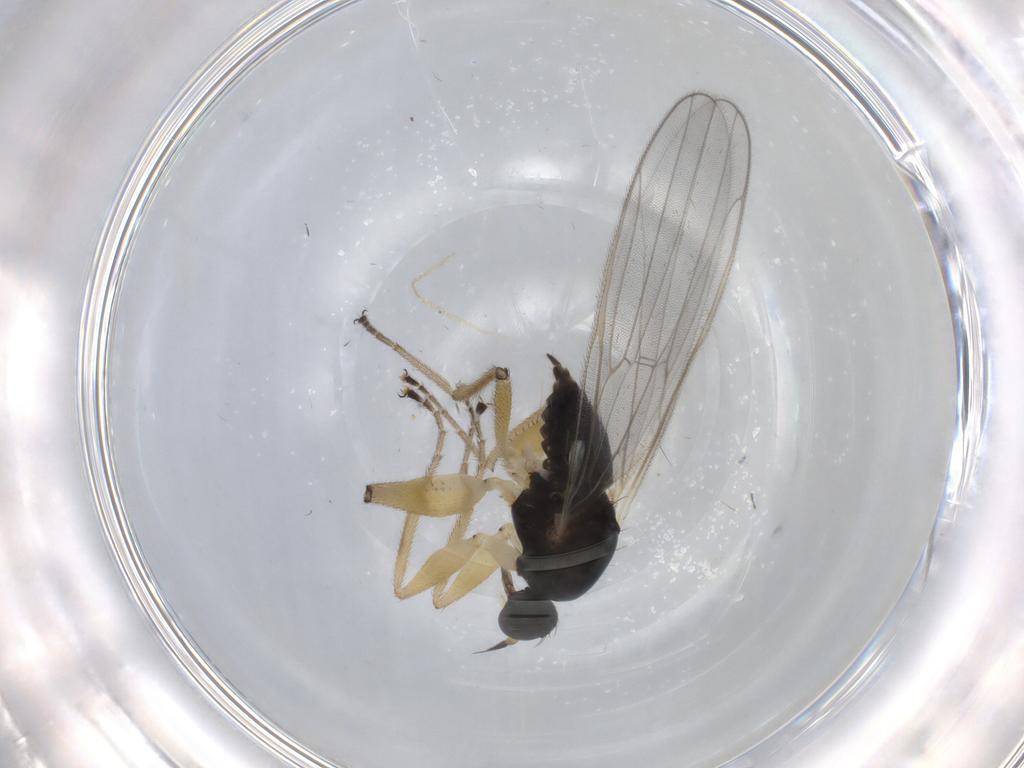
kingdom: Animalia
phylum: Arthropoda
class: Insecta
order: Diptera
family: Hybotidae
